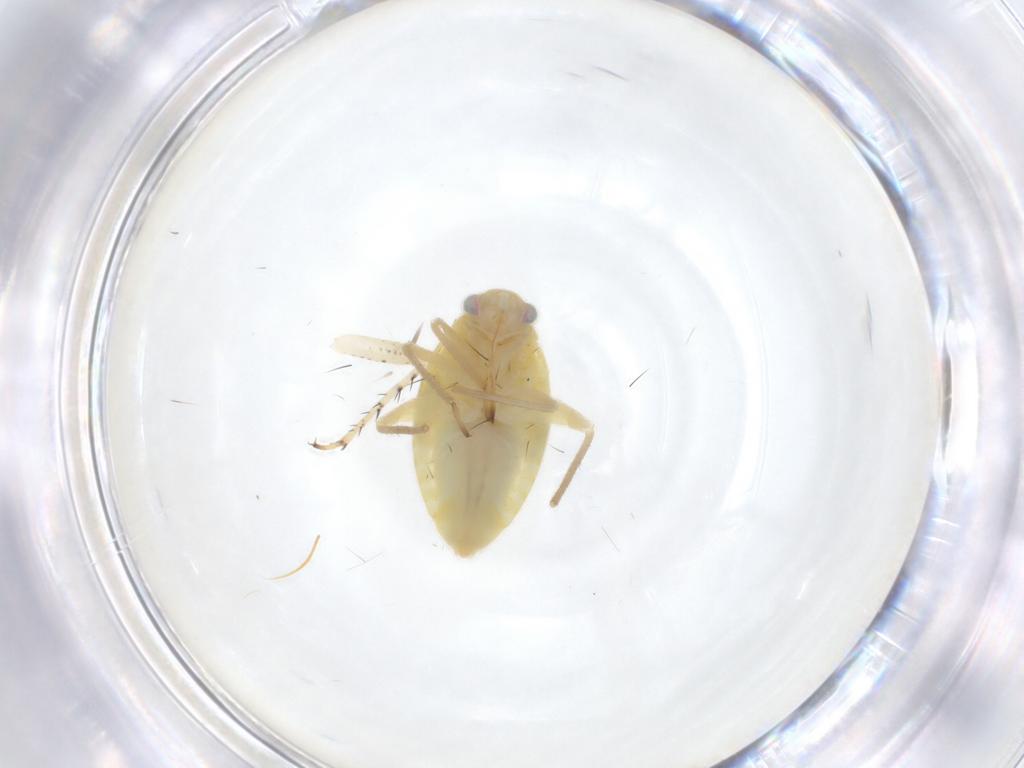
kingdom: Animalia
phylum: Arthropoda
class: Insecta
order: Hemiptera
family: Miridae
